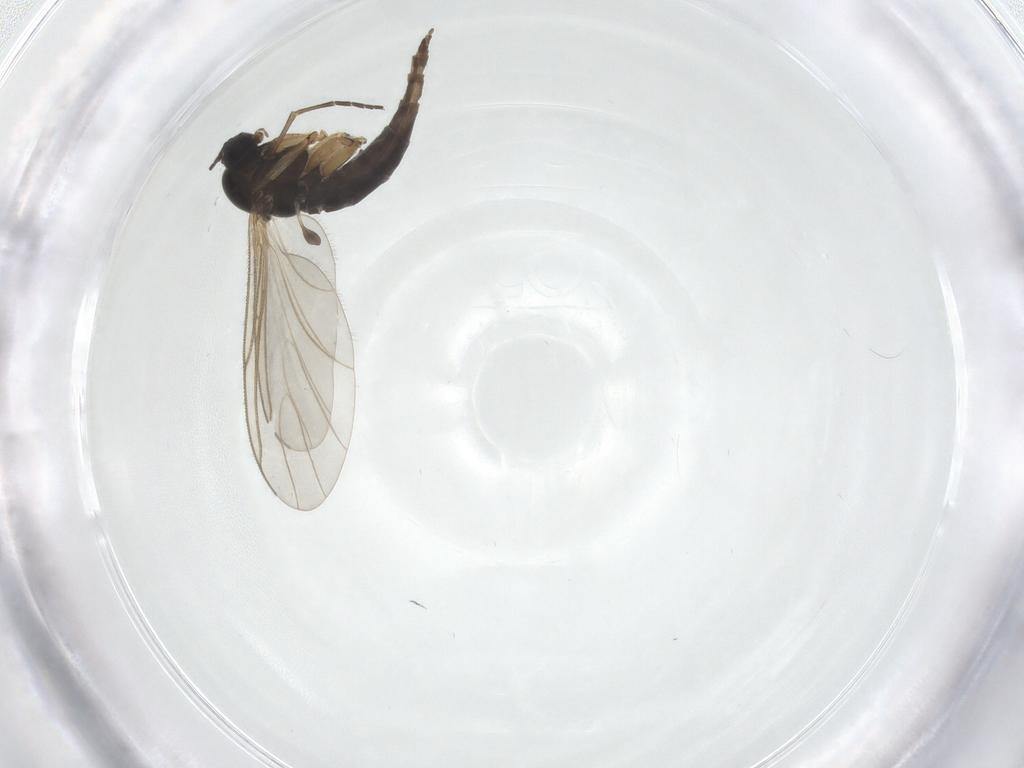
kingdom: Animalia
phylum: Arthropoda
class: Insecta
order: Diptera
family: Sciaridae
